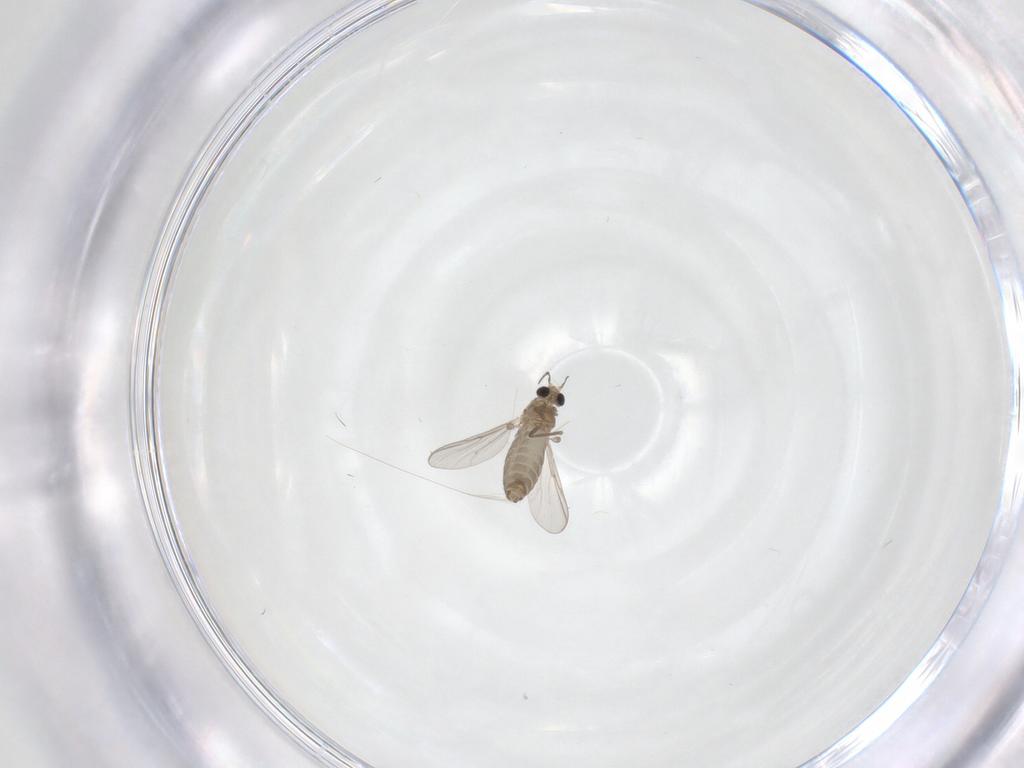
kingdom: Animalia
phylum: Arthropoda
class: Insecta
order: Diptera
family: Chironomidae
